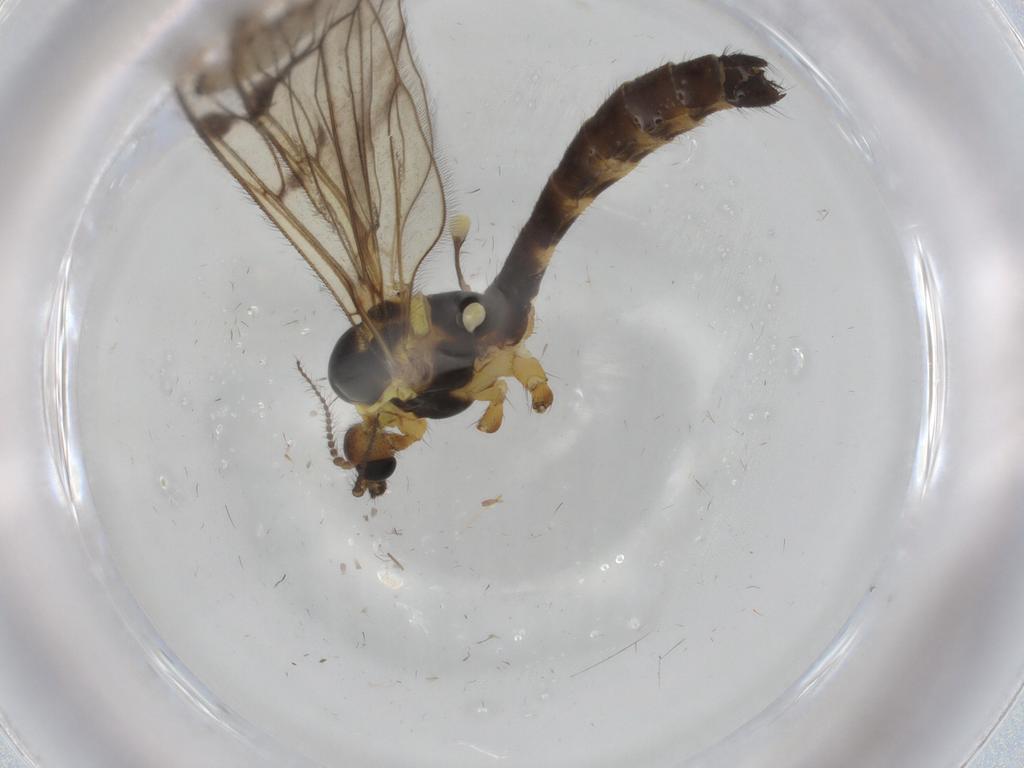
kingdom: Animalia
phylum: Arthropoda
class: Insecta
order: Diptera
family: Limoniidae
